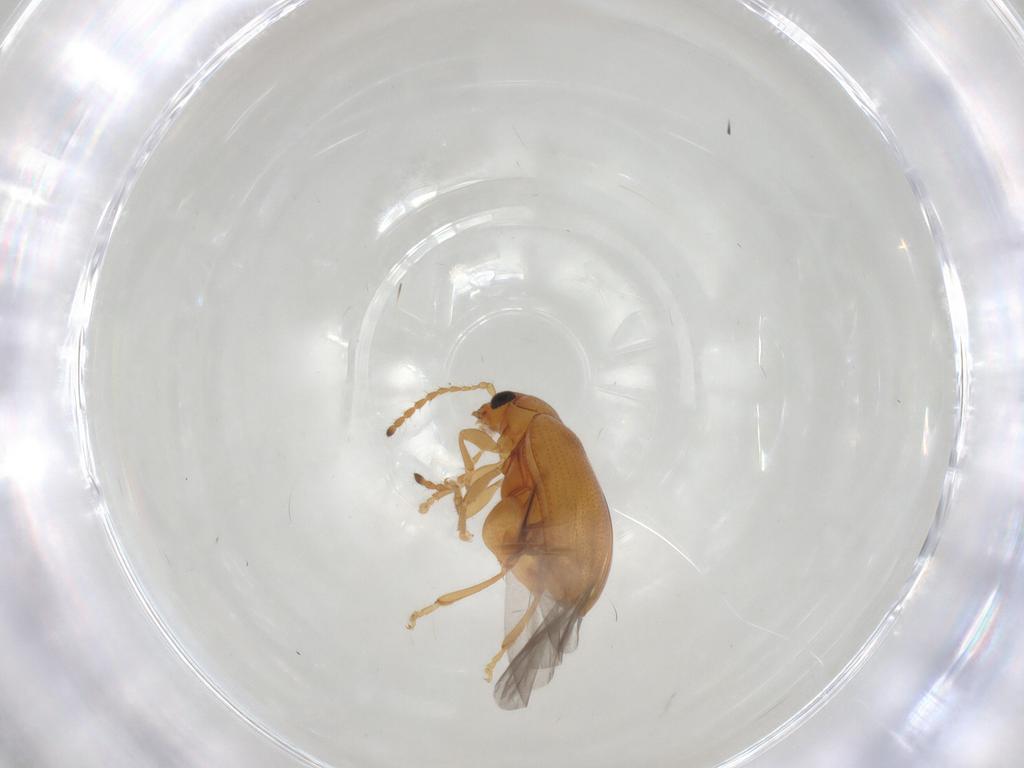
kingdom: Animalia
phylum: Arthropoda
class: Insecta
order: Coleoptera
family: Chrysomelidae
